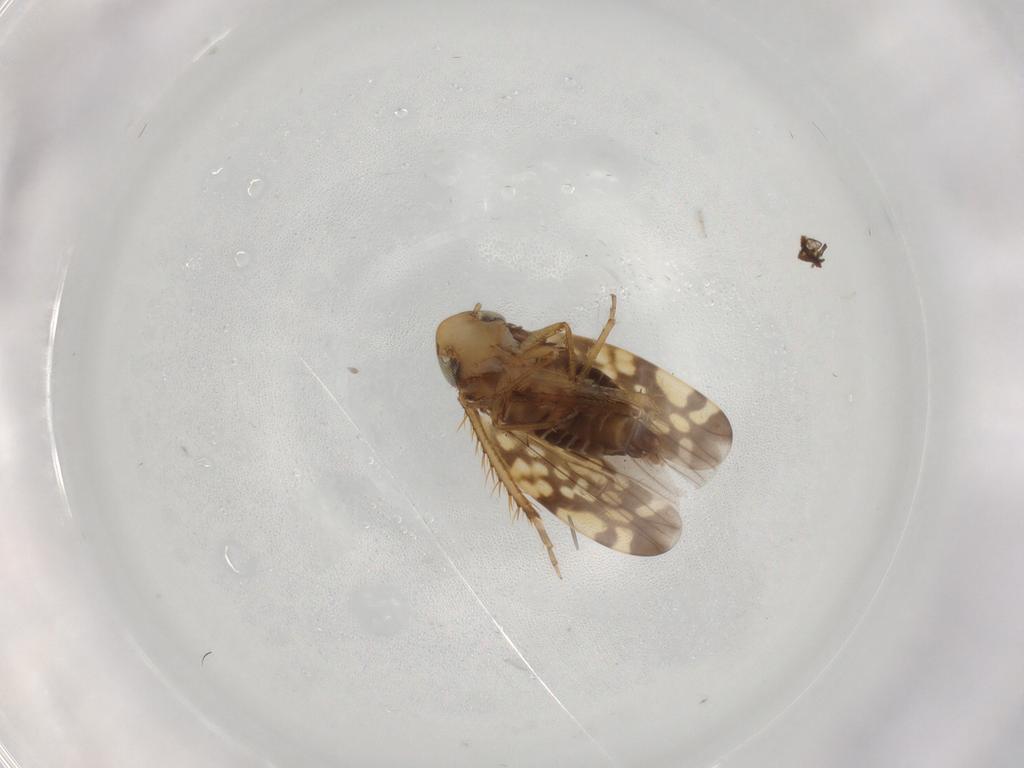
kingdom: Animalia
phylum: Arthropoda
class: Insecta
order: Hemiptera
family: Cicadellidae
